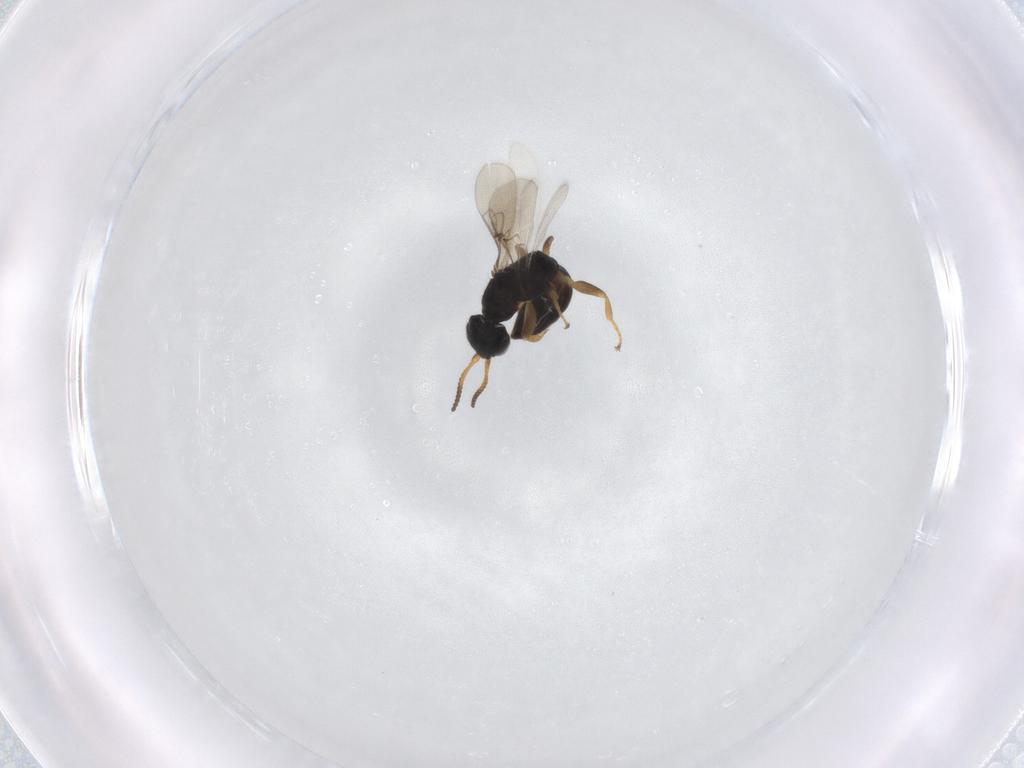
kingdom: Animalia
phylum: Arthropoda
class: Insecta
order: Hymenoptera
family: Bethylidae
